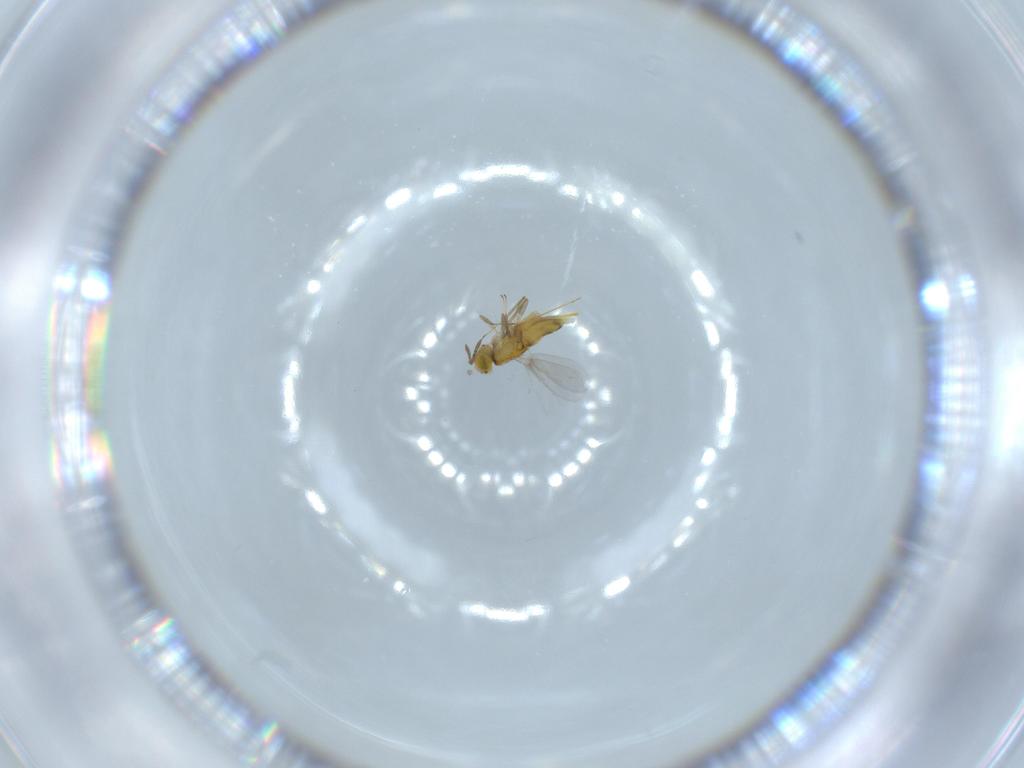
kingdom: Animalia
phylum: Arthropoda
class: Insecta
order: Hymenoptera
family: Aphelinidae
